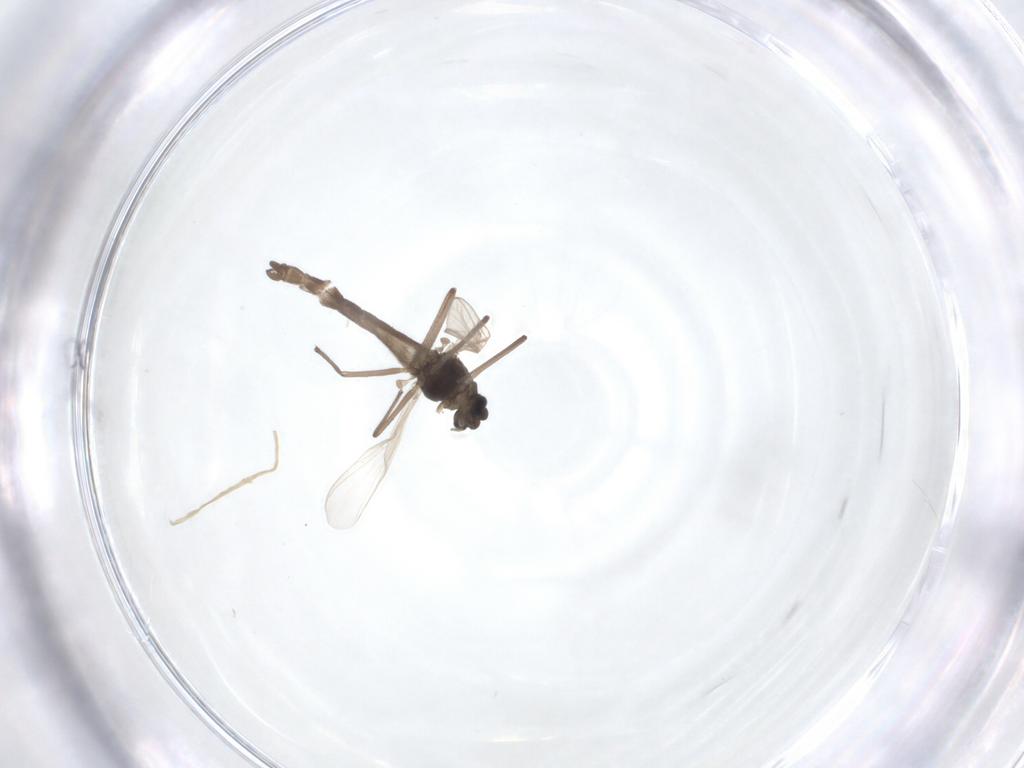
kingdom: Animalia
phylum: Arthropoda
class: Insecta
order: Diptera
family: Chironomidae
